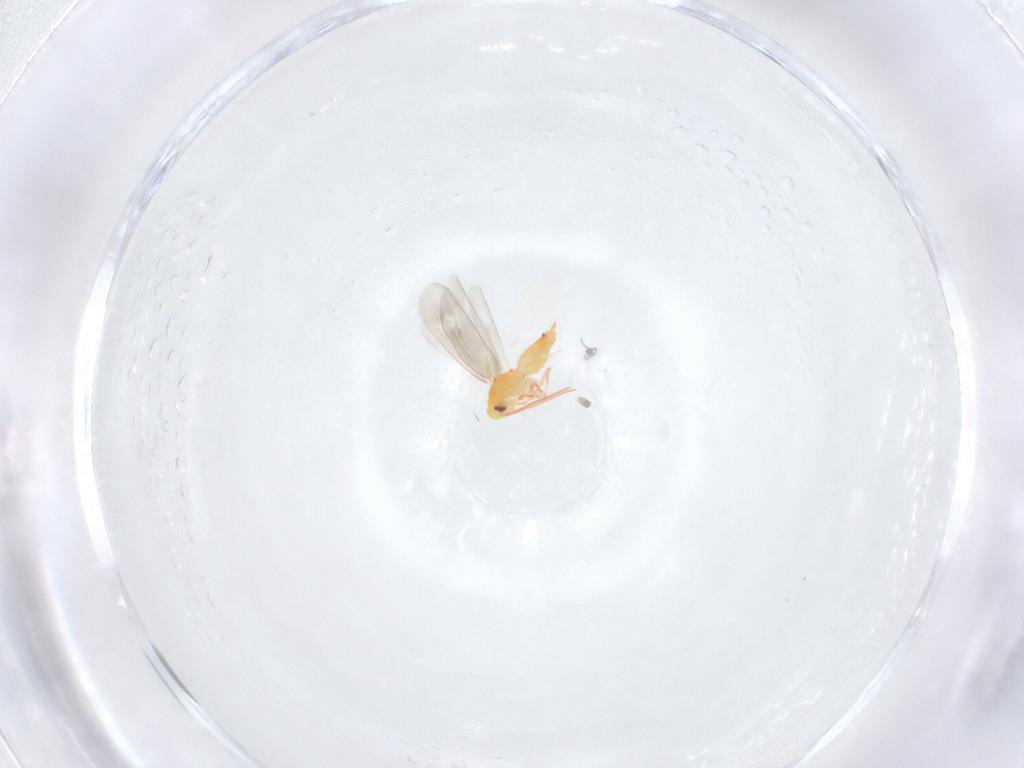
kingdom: Animalia
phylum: Arthropoda
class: Insecta
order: Hemiptera
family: Aleyrodidae
